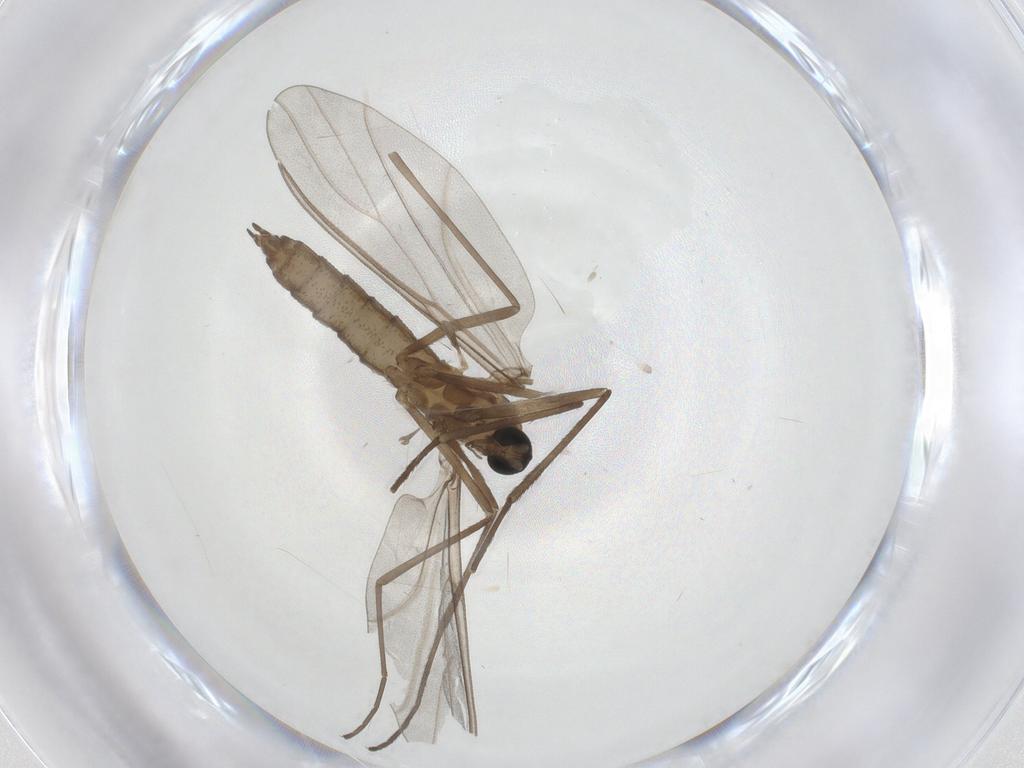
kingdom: Animalia
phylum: Arthropoda
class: Insecta
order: Diptera
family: Cecidomyiidae
